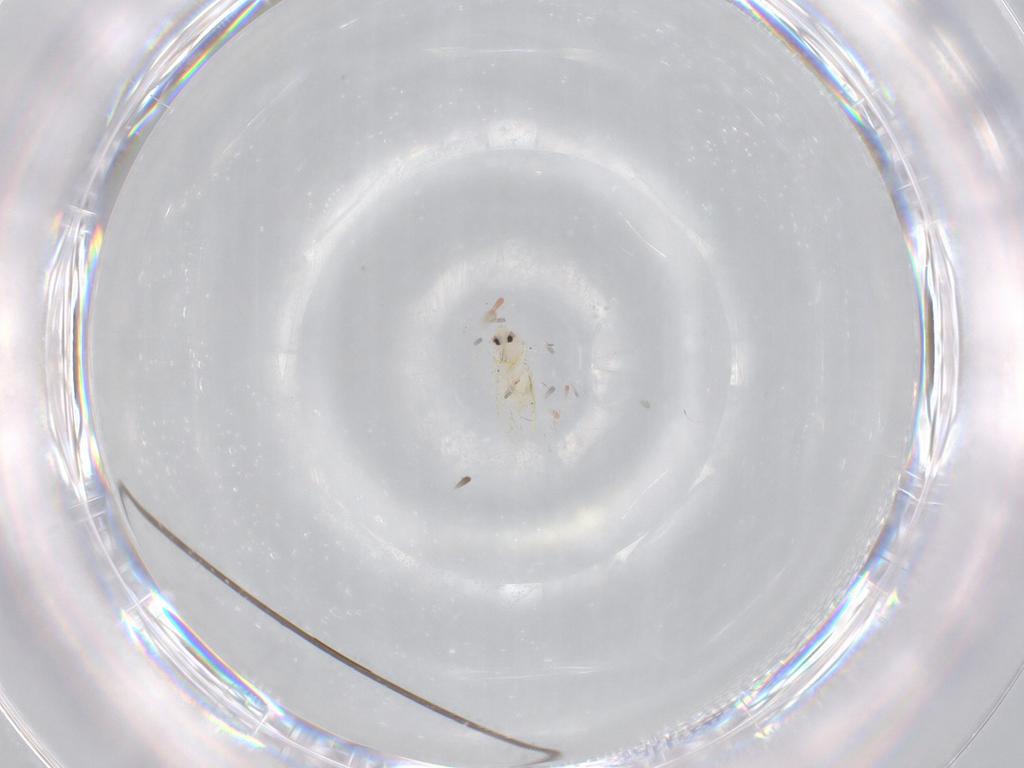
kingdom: Animalia
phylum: Arthropoda
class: Insecta
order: Hemiptera
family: Aleyrodidae
